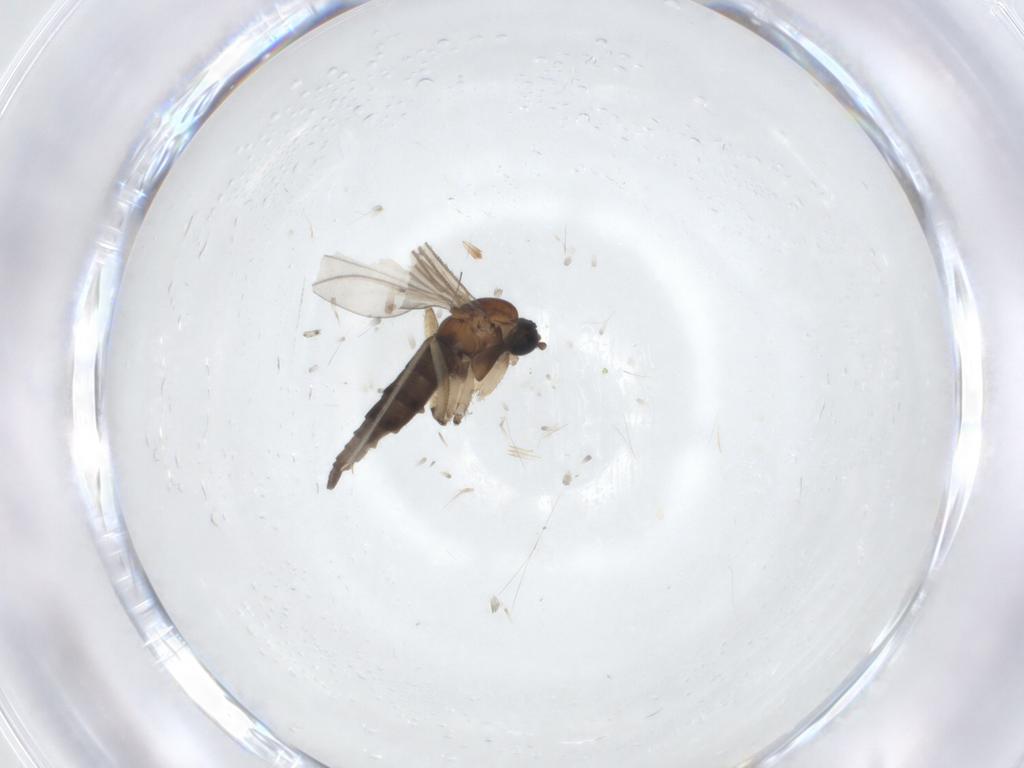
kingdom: Animalia
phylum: Arthropoda
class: Insecta
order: Diptera
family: Sciaridae
